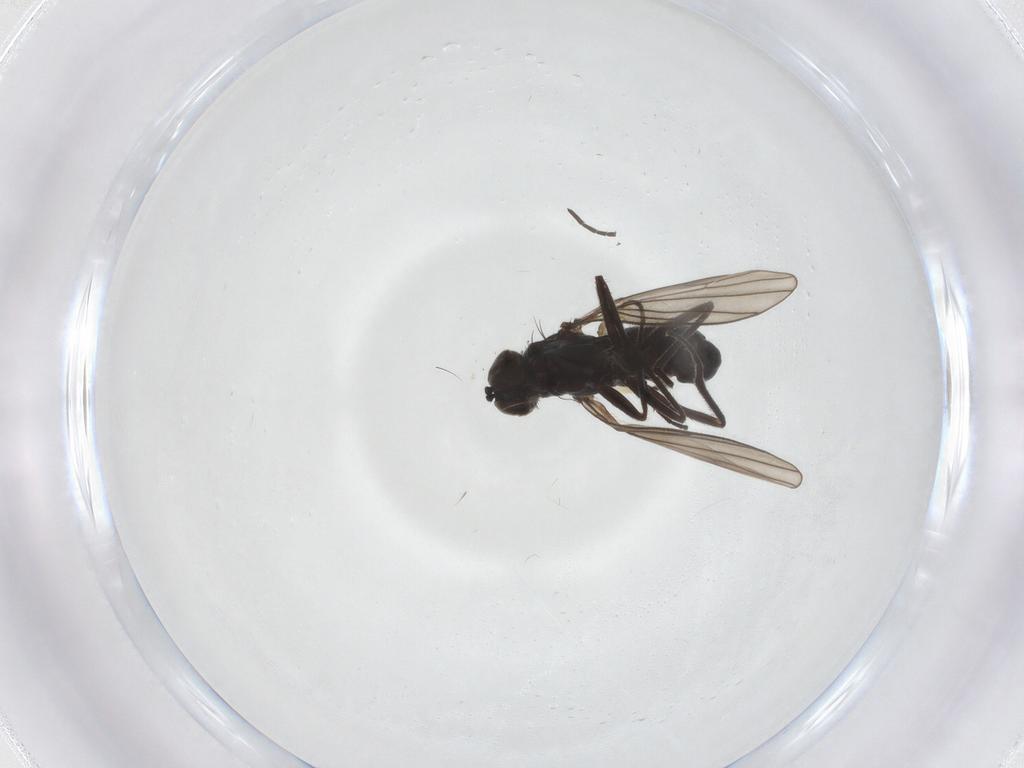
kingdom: Animalia
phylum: Arthropoda
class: Insecta
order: Diptera
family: Dolichopodidae
